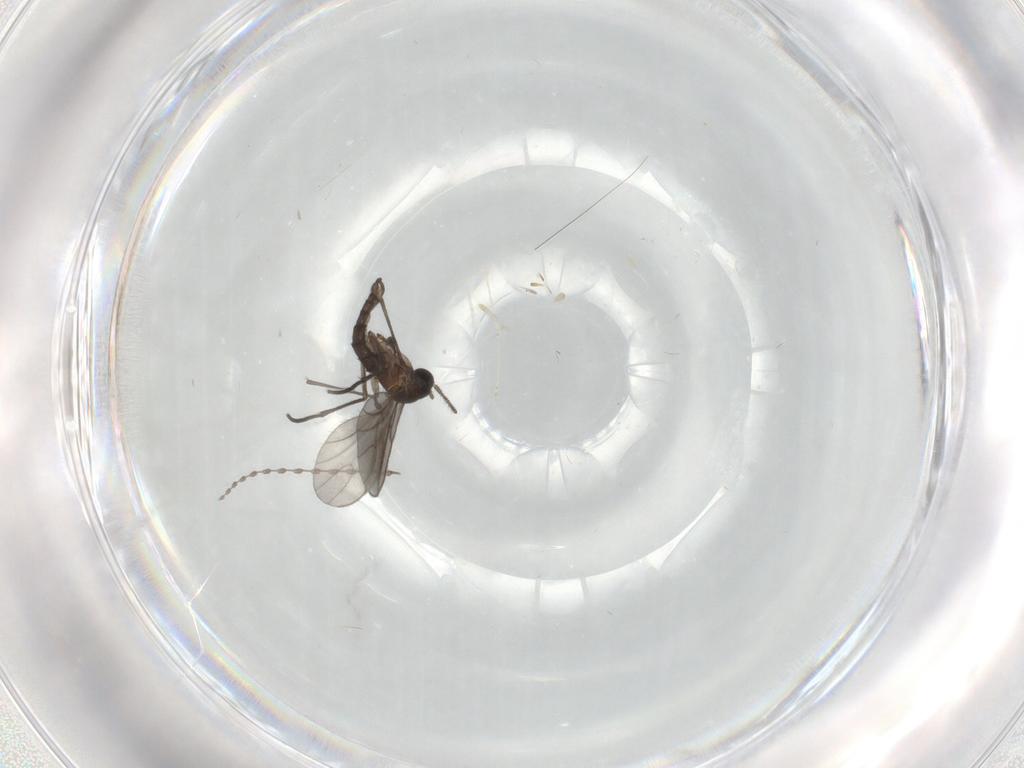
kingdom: Animalia
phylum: Arthropoda
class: Insecta
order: Diptera
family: Sciaridae
